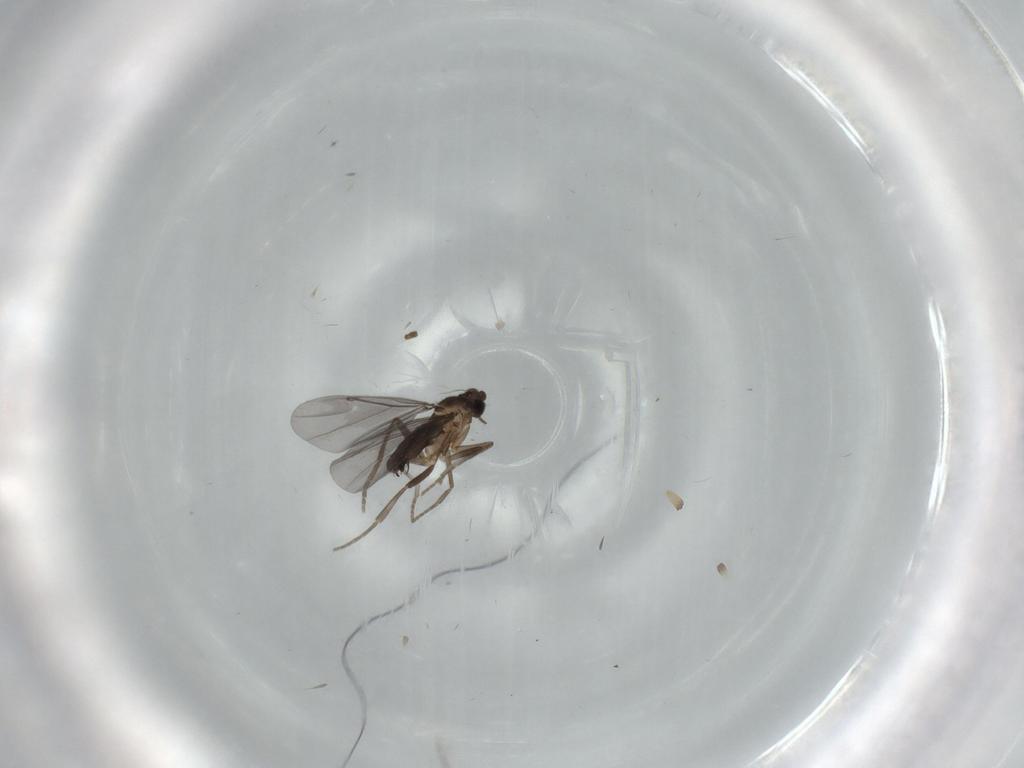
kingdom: Animalia
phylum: Arthropoda
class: Insecta
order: Diptera
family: Phoridae
